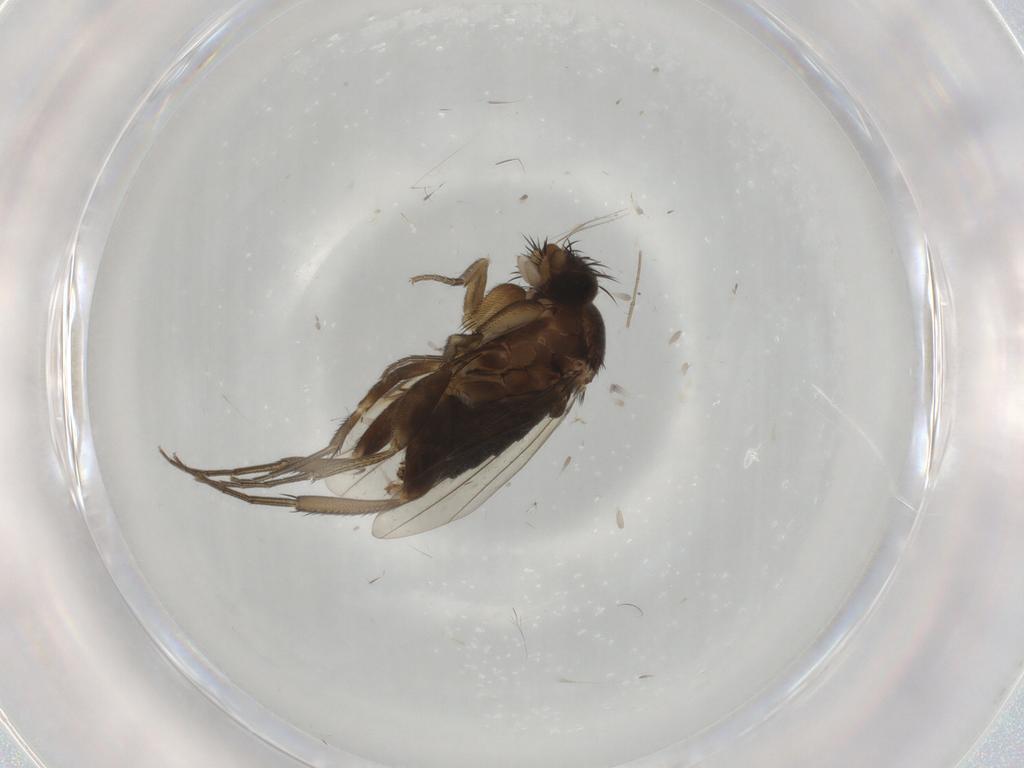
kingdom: Animalia
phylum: Arthropoda
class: Insecta
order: Diptera
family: Phoridae
